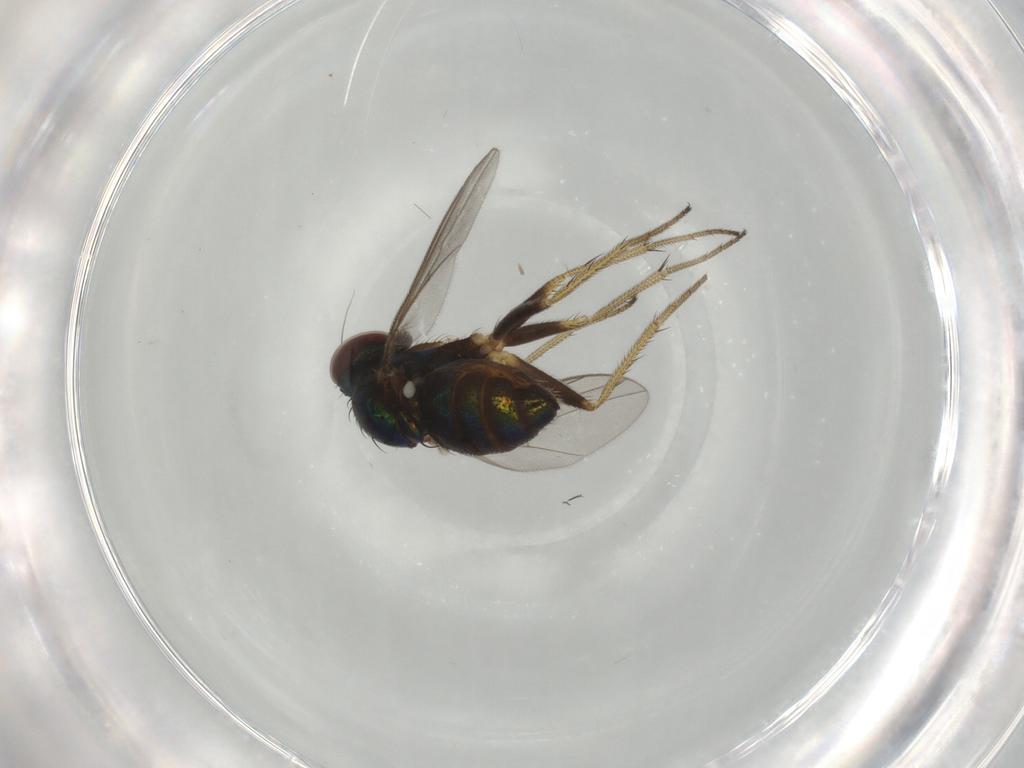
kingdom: Animalia
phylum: Arthropoda
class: Insecta
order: Diptera
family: Dolichopodidae
